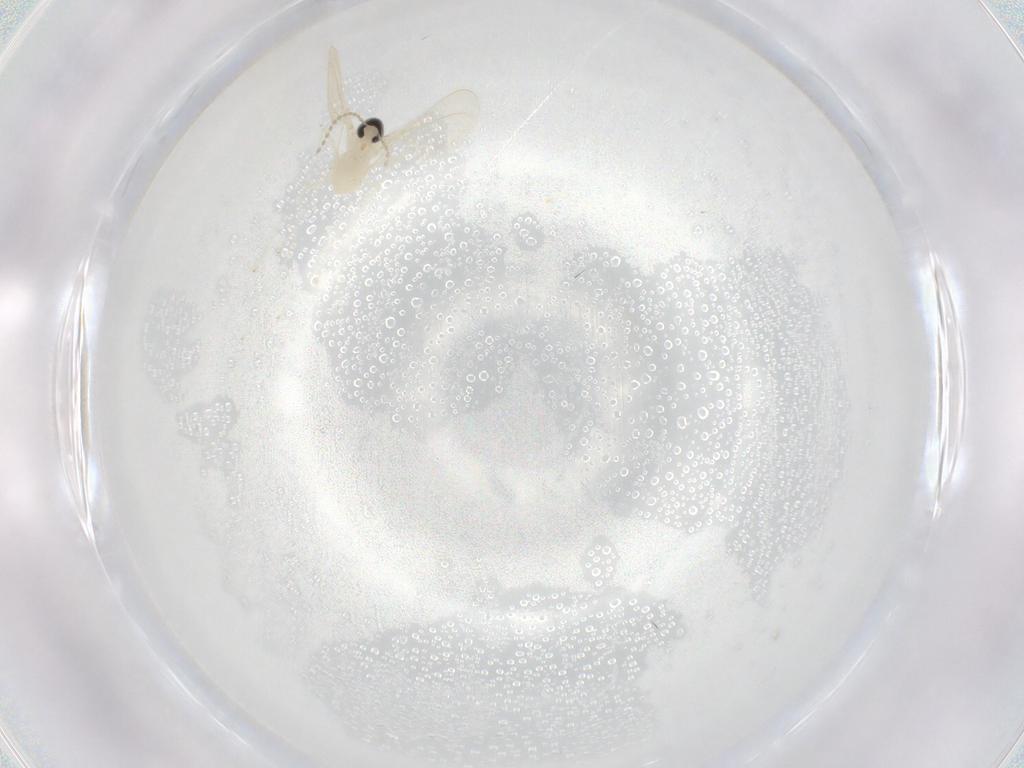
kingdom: Animalia
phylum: Arthropoda
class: Insecta
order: Diptera
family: Cecidomyiidae
